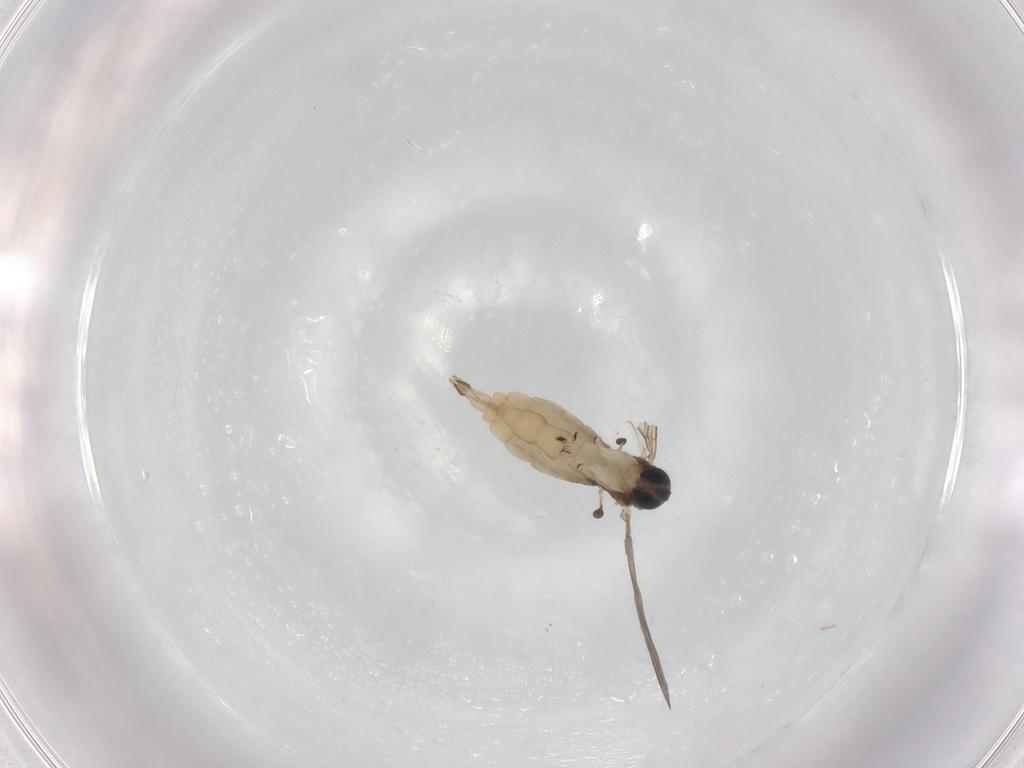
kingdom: Animalia
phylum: Arthropoda
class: Insecta
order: Diptera
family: Sciaridae
